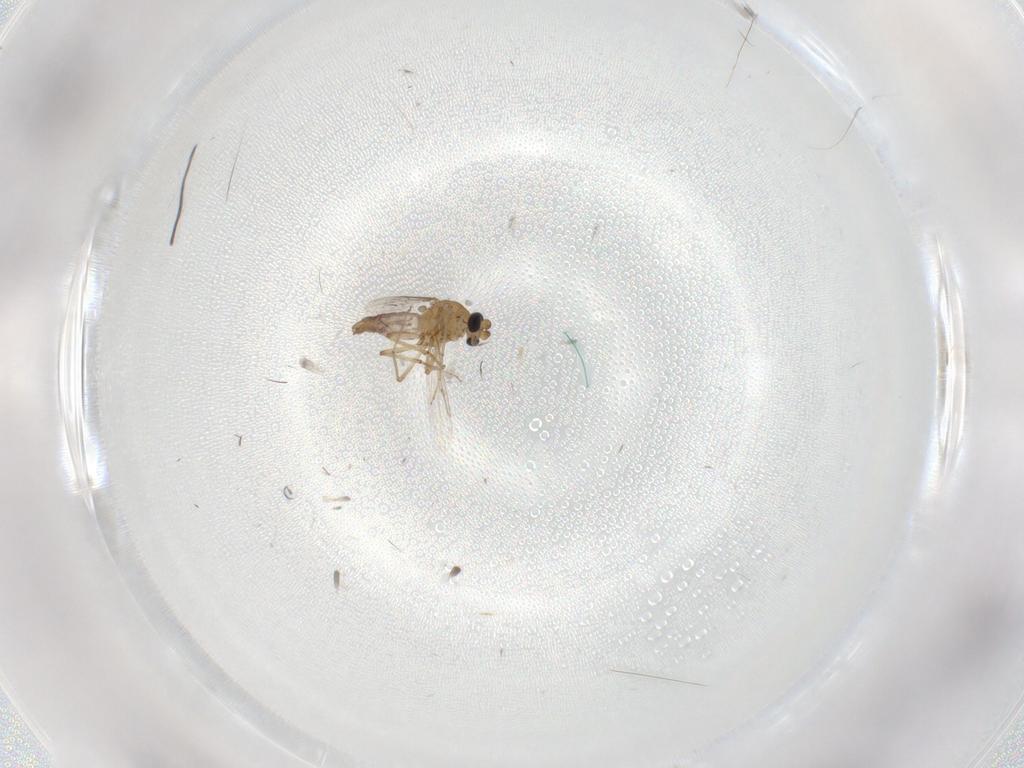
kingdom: Animalia
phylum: Arthropoda
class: Insecta
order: Diptera
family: Ceratopogonidae
